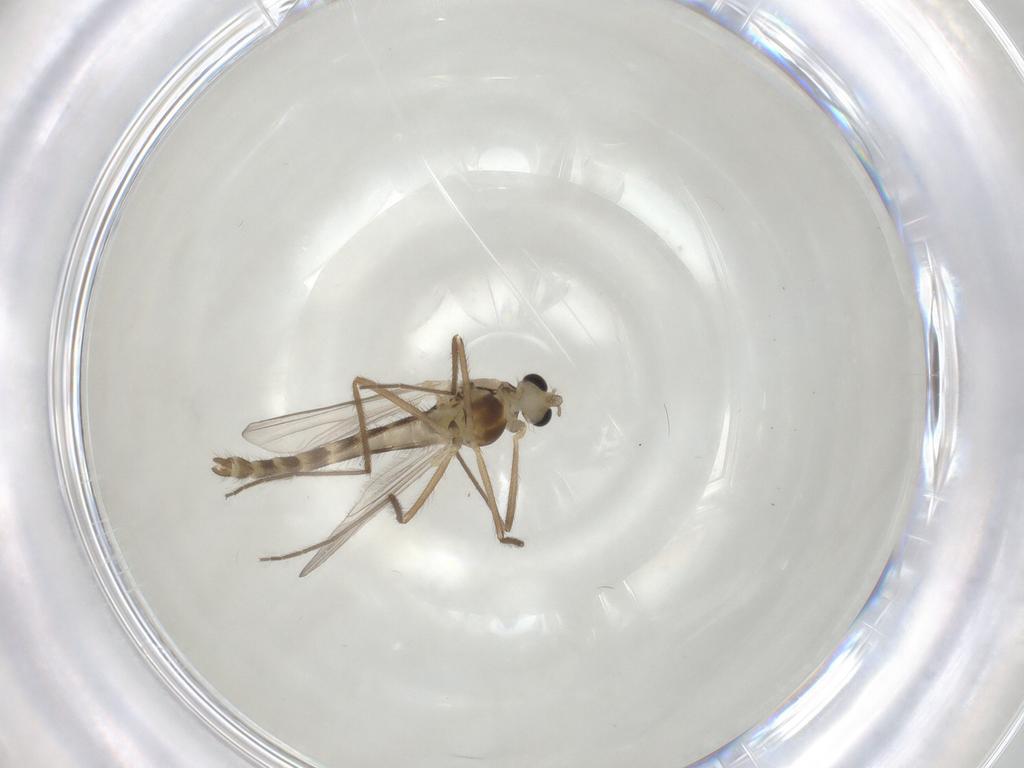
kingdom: Animalia
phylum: Arthropoda
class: Insecta
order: Diptera
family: Chironomidae
